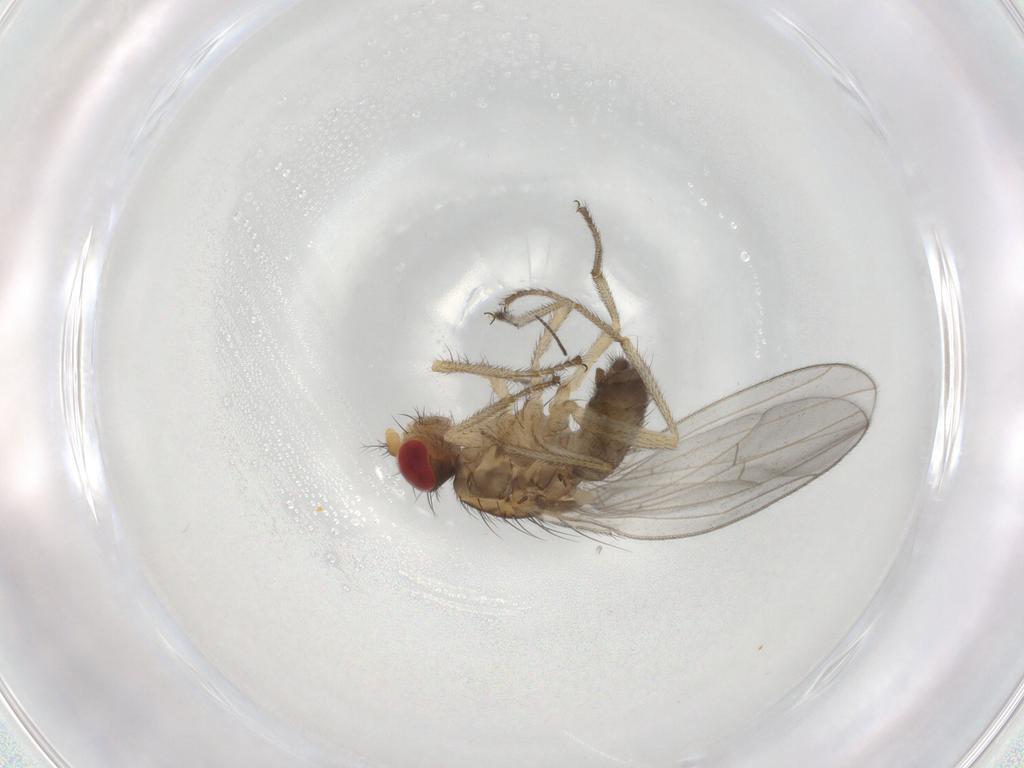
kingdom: Animalia
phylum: Arthropoda
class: Insecta
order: Diptera
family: Drosophilidae
